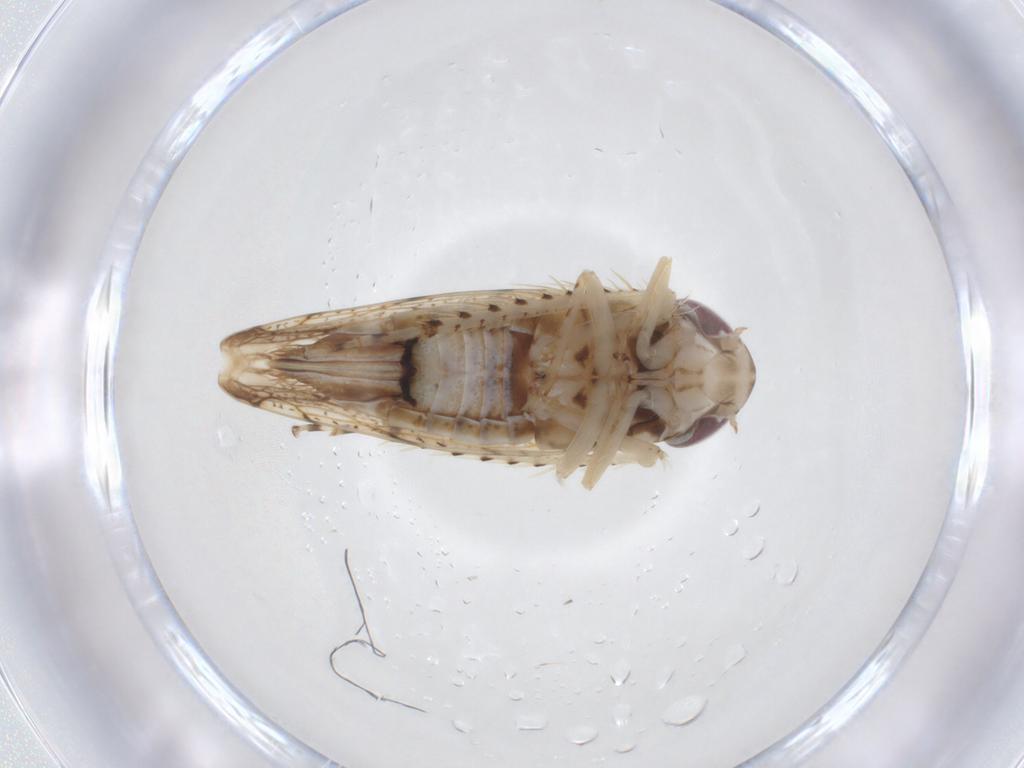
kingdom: Animalia
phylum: Arthropoda
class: Insecta
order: Hemiptera
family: Cicadellidae
